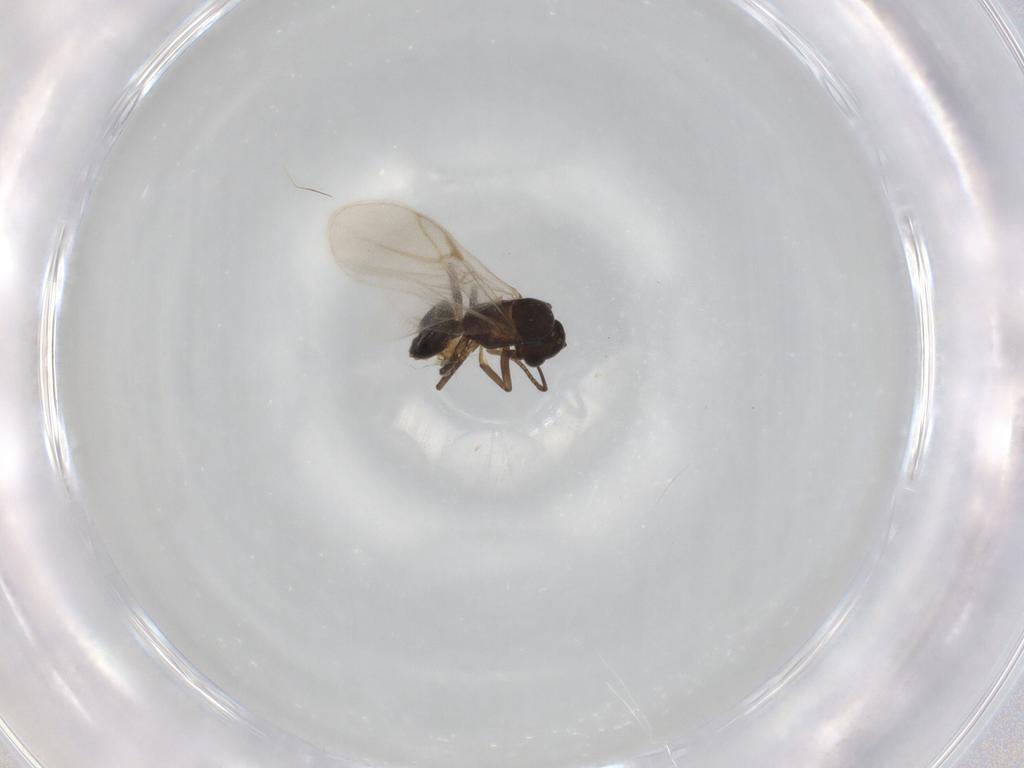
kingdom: Animalia
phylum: Arthropoda
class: Insecta
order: Hymenoptera
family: Formicidae
